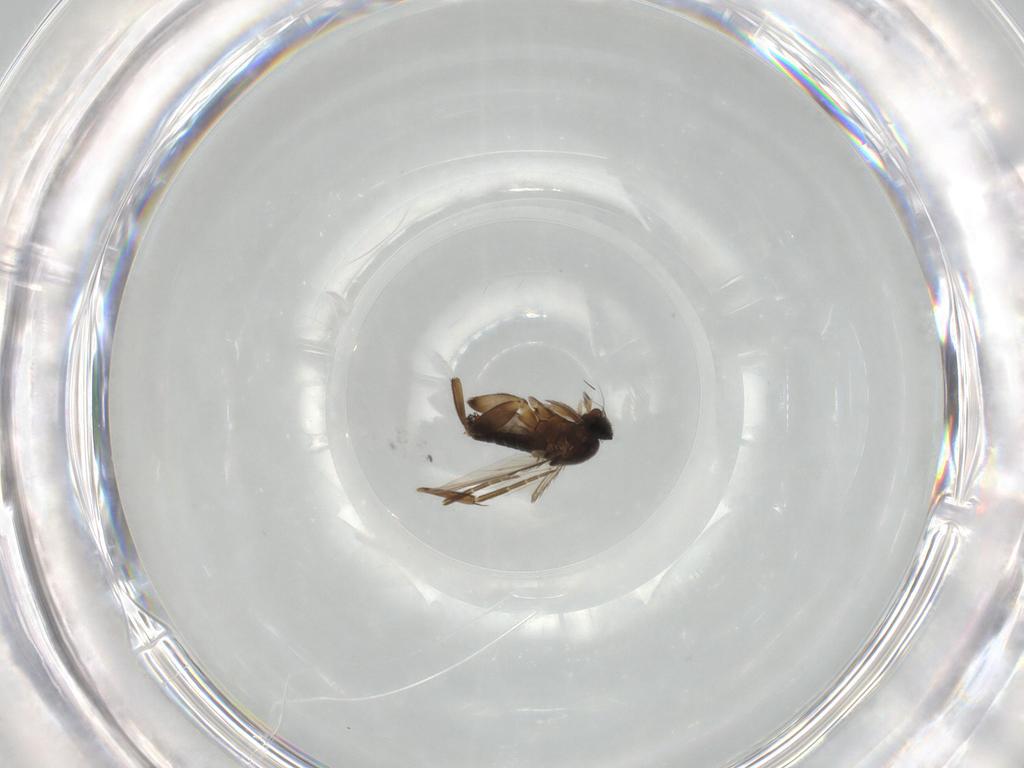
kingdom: Animalia
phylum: Arthropoda
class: Insecta
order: Diptera
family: Phoridae
